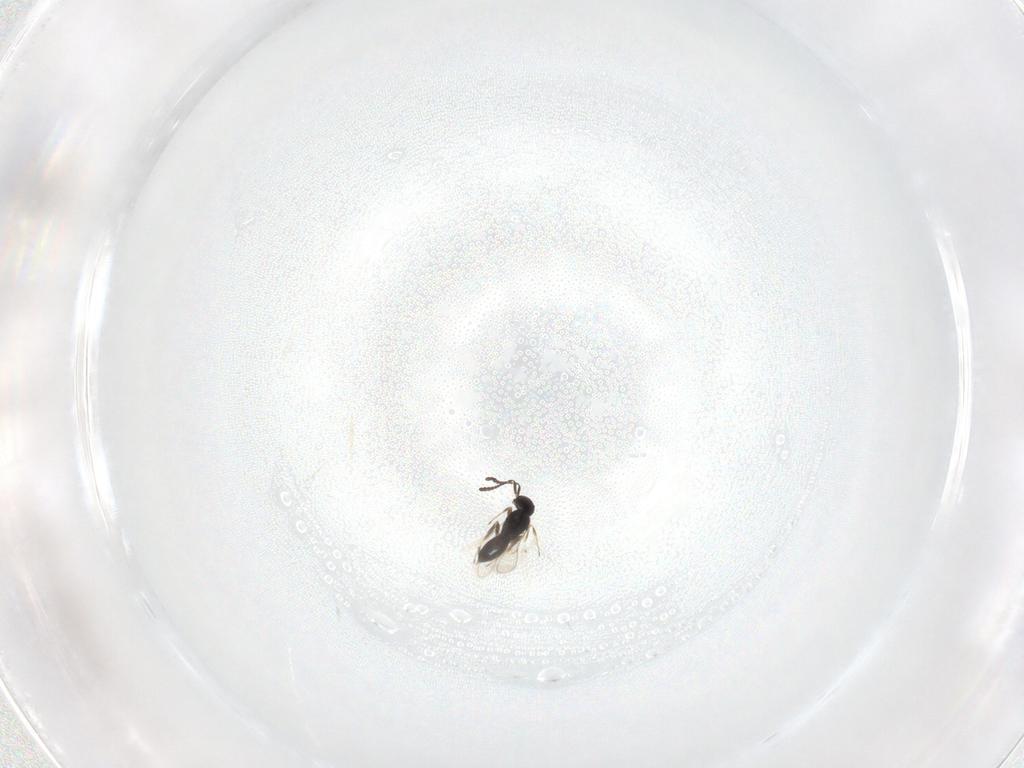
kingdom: Animalia
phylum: Arthropoda
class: Insecta
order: Hymenoptera
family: Scelionidae
